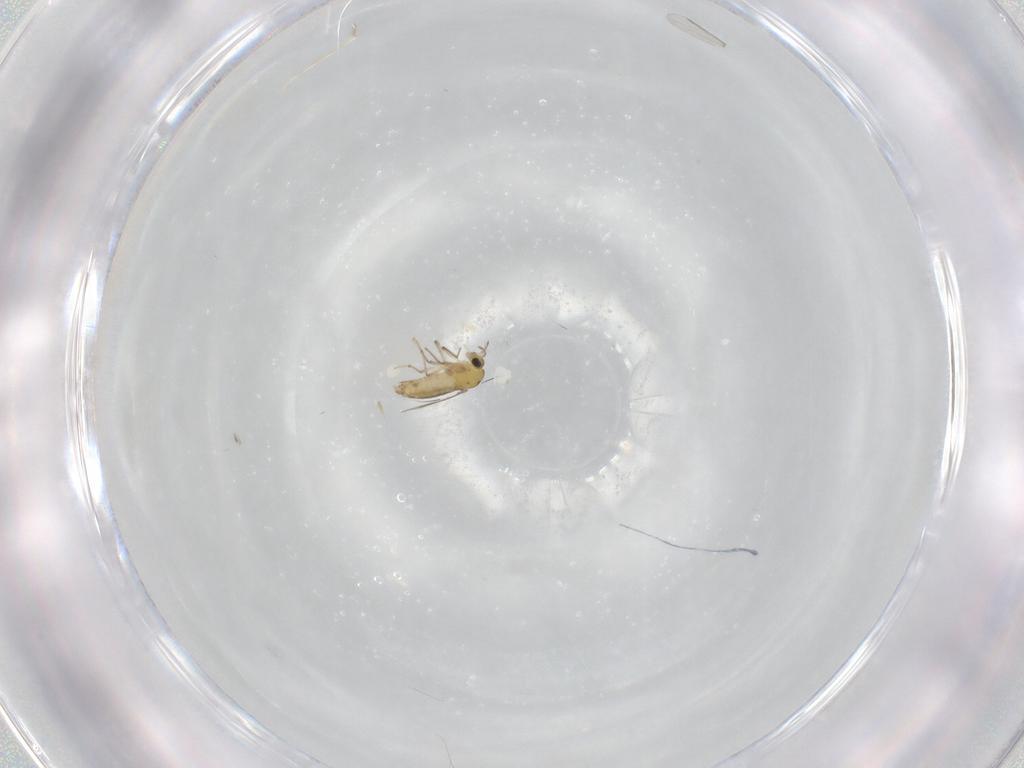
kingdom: Animalia
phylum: Arthropoda
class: Insecta
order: Diptera
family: Chironomidae
